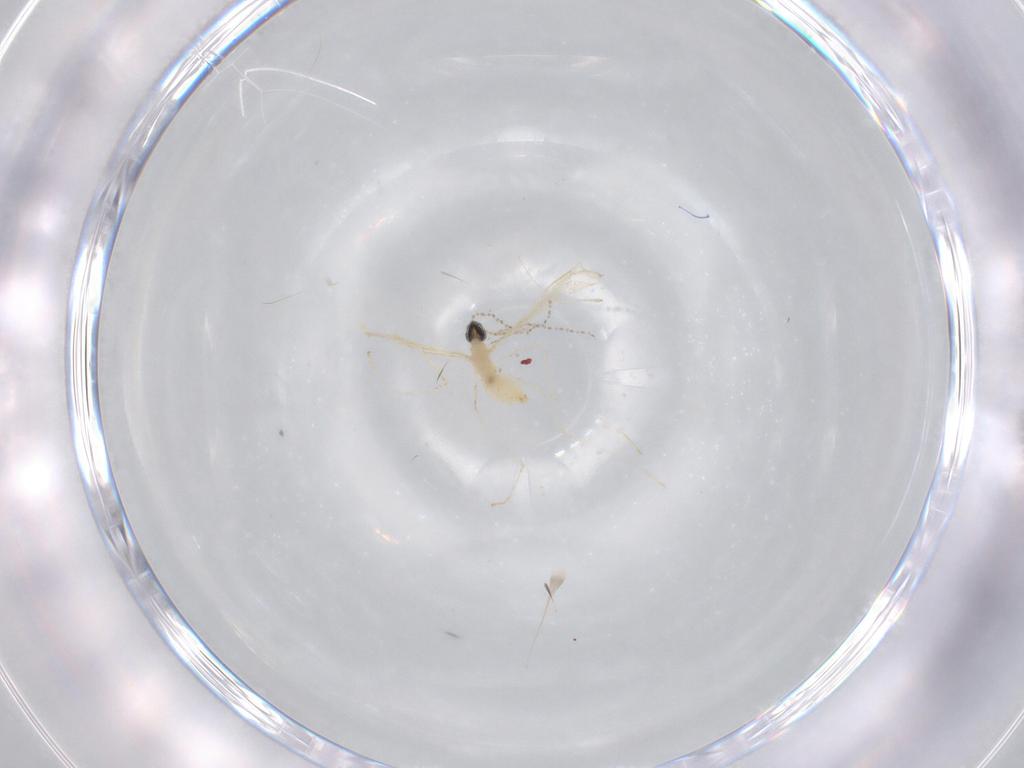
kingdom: Animalia
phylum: Arthropoda
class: Insecta
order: Diptera
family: Cecidomyiidae
